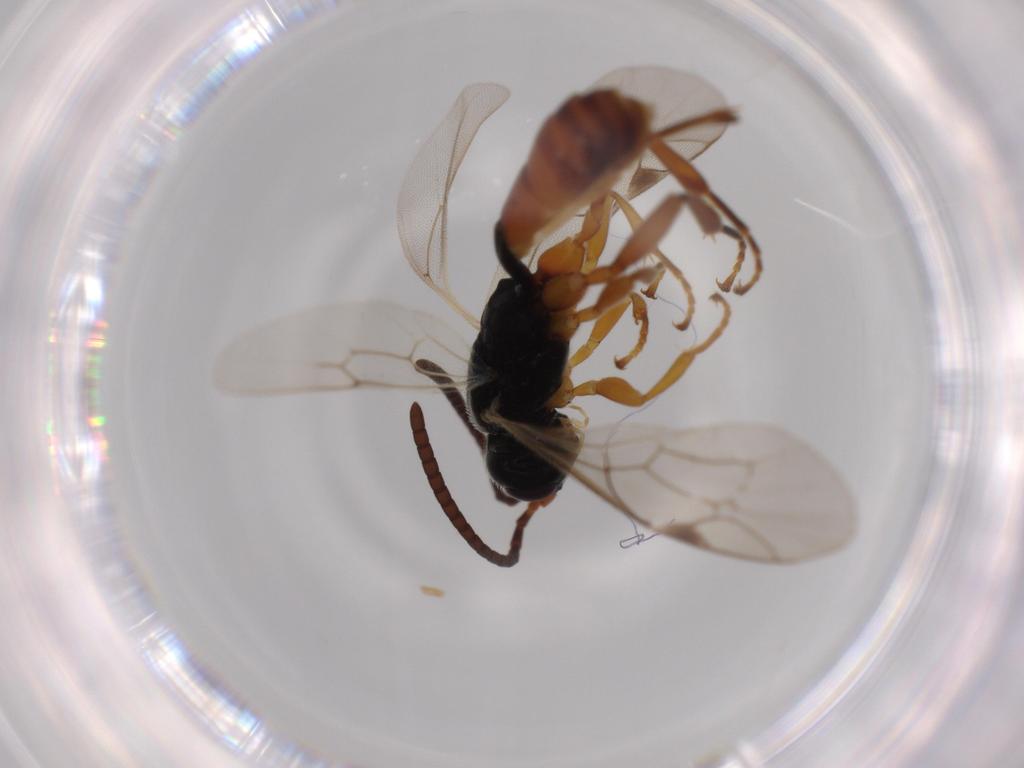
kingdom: Animalia
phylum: Arthropoda
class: Insecta
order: Hymenoptera
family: Ichneumonidae
